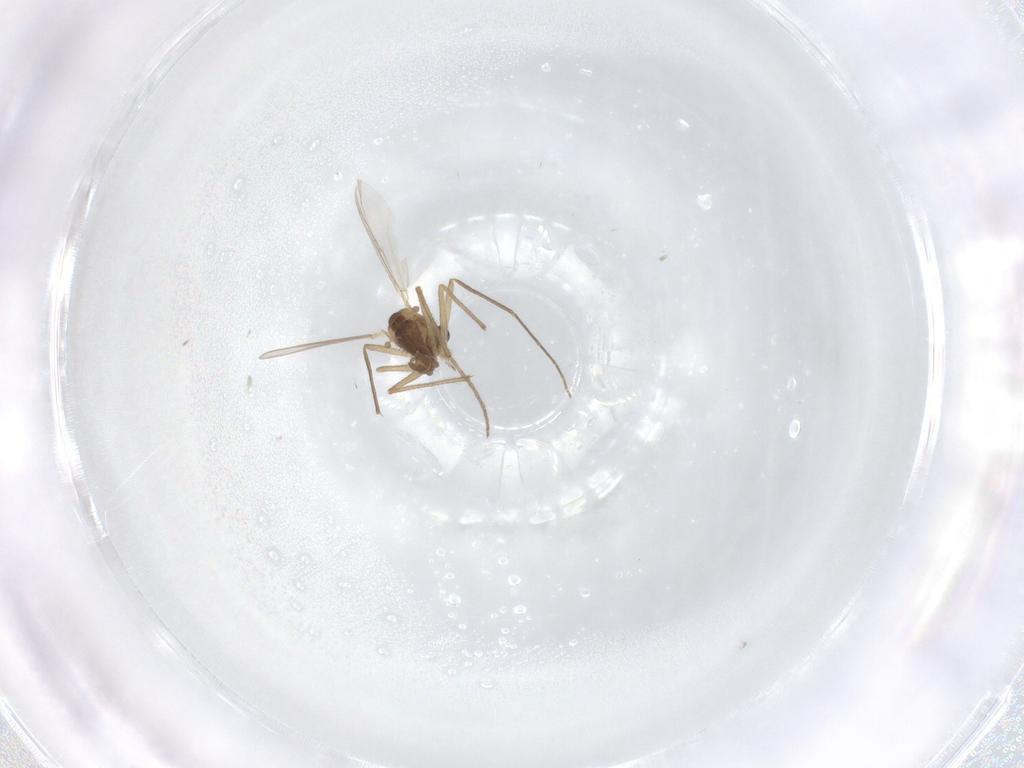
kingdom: Animalia
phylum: Arthropoda
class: Insecta
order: Diptera
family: Chironomidae
